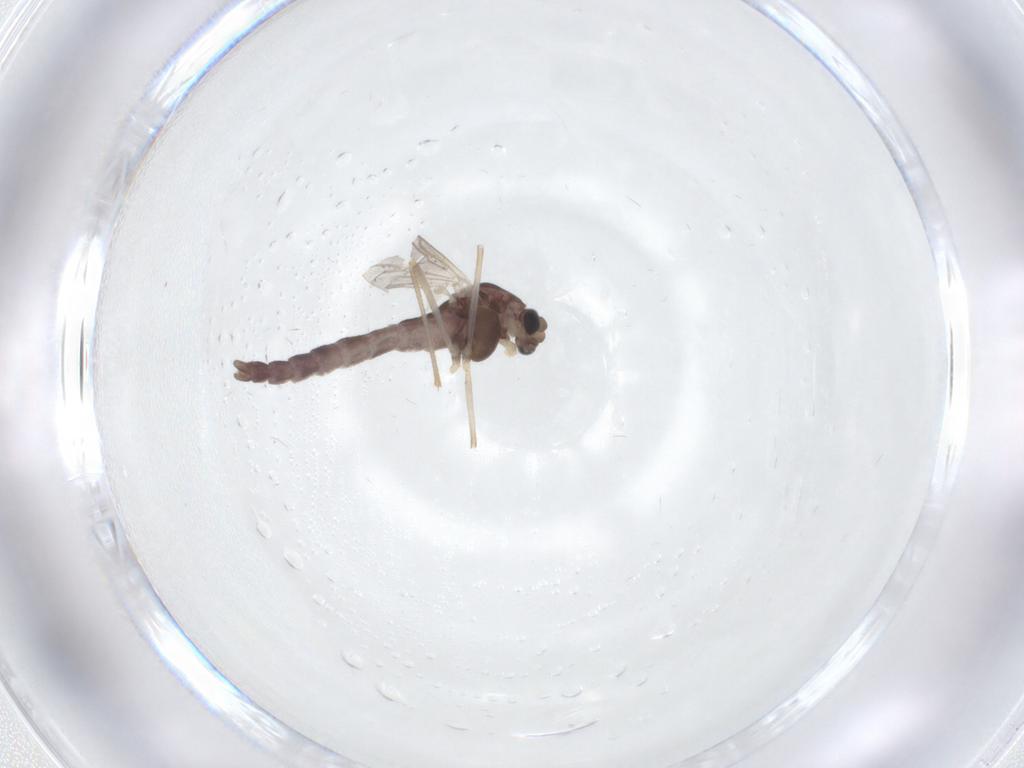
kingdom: Animalia
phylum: Arthropoda
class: Insecta
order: Diptera
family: Chironomidae
